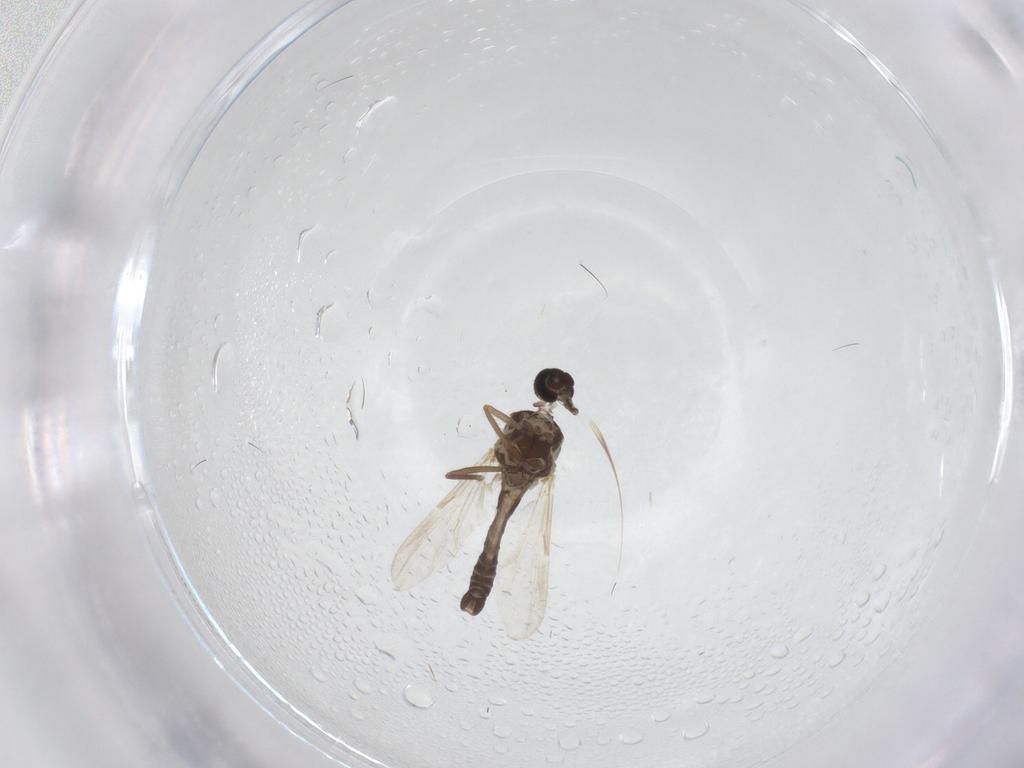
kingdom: Animalia
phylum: Arthropoda
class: Insecta
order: Diptera
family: Ceratopogonidae
